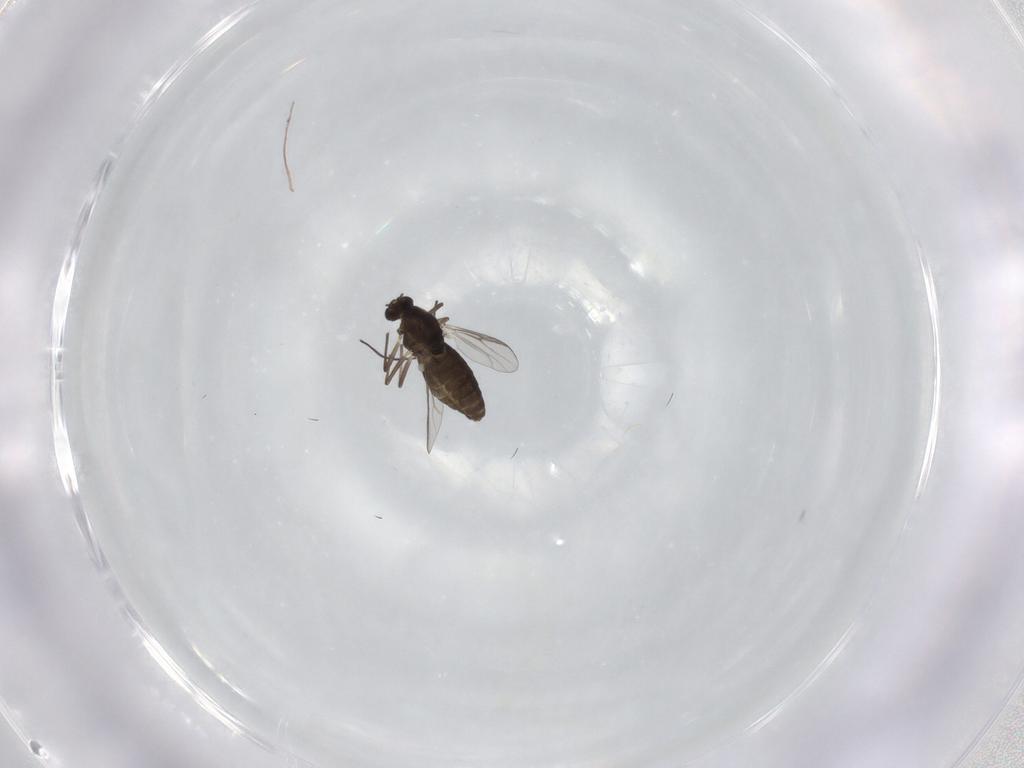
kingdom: Animalia
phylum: Arthropoda
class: Insecta
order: Diptera
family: Chironomidae
